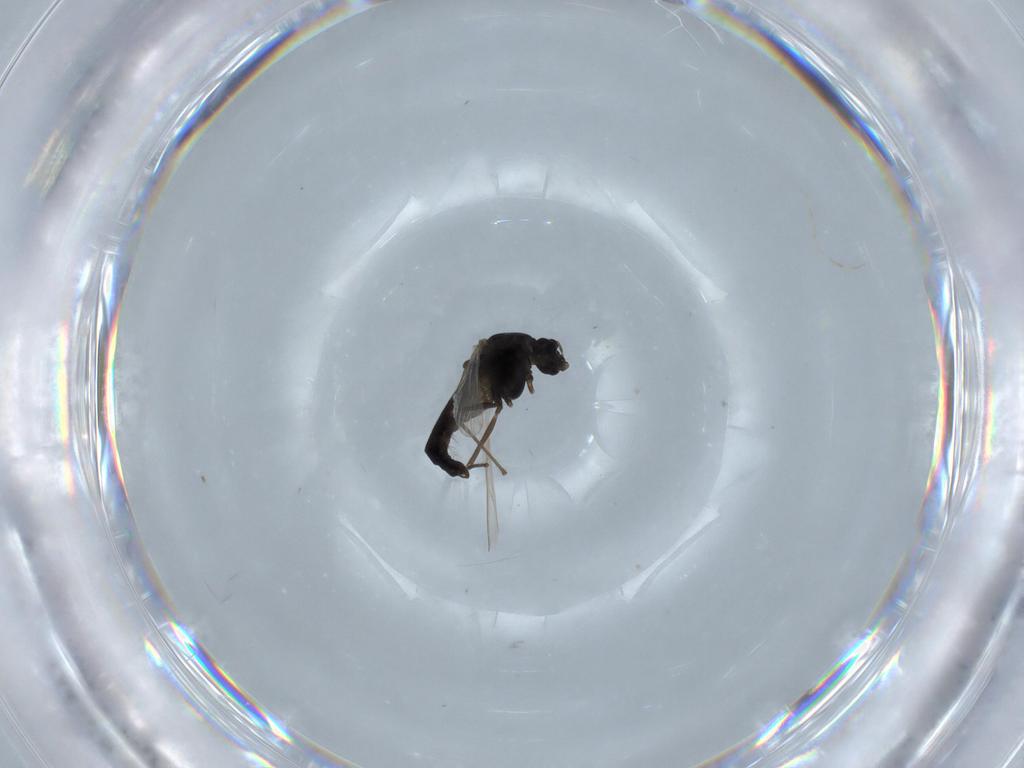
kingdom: Animalia
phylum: Arthropoda
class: Insecta
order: Diptera
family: Chironomidae
